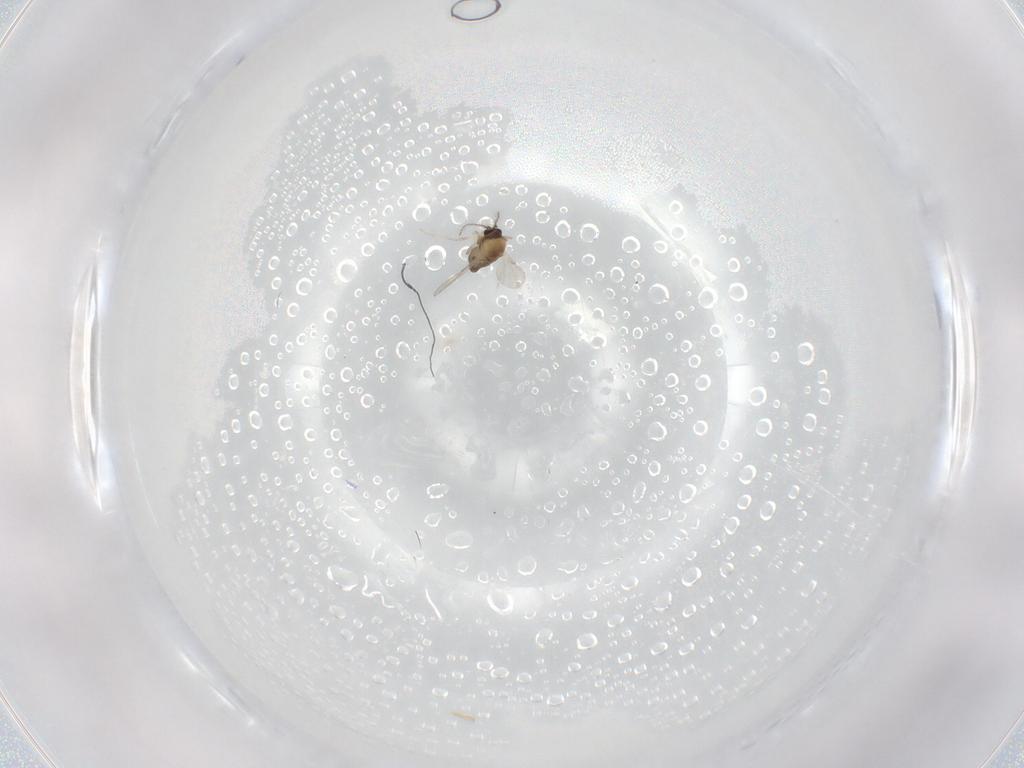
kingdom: Animalia
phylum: Arthropoda
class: Insecta
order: Diptera
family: Ceratopogonidae
